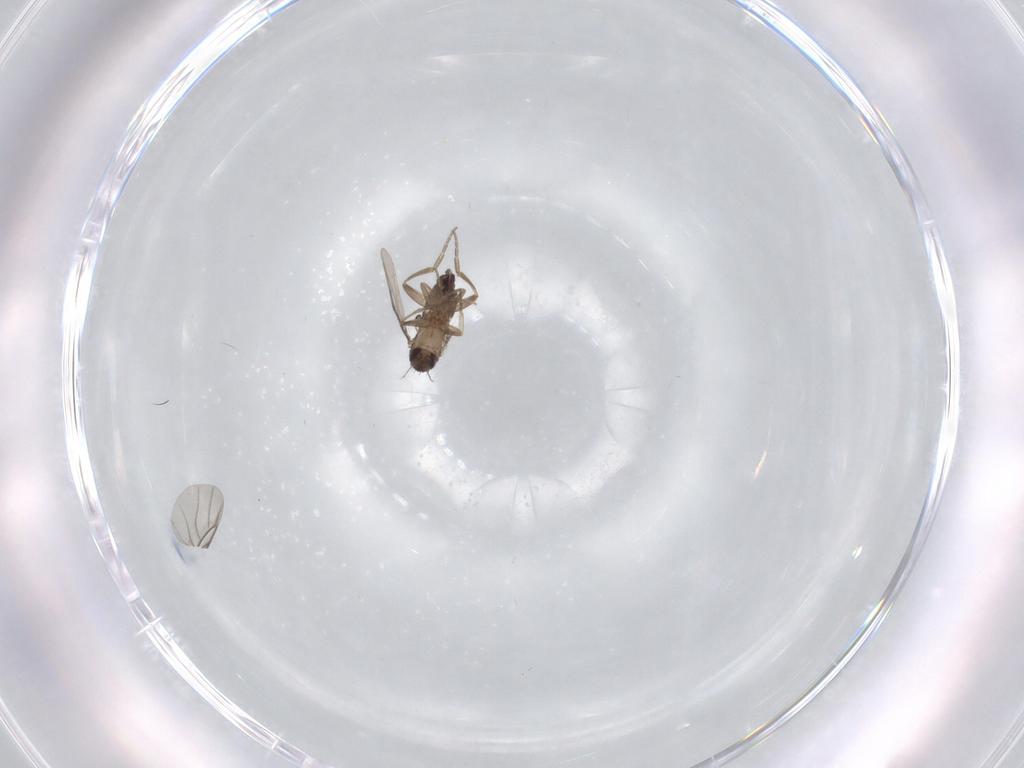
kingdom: Animalia
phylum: Arthropoda
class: Insecta
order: Diptera
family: Phoridae
